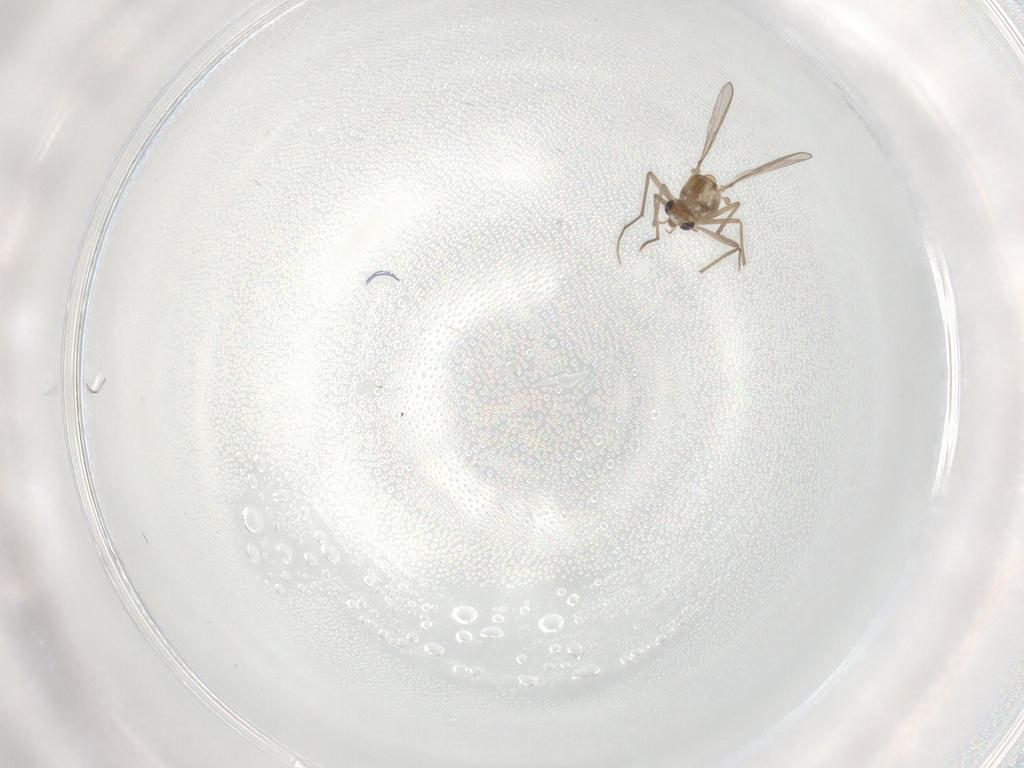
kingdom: Animalia
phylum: Arthropoda
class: Insecta
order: Diptera
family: Chironomidae
